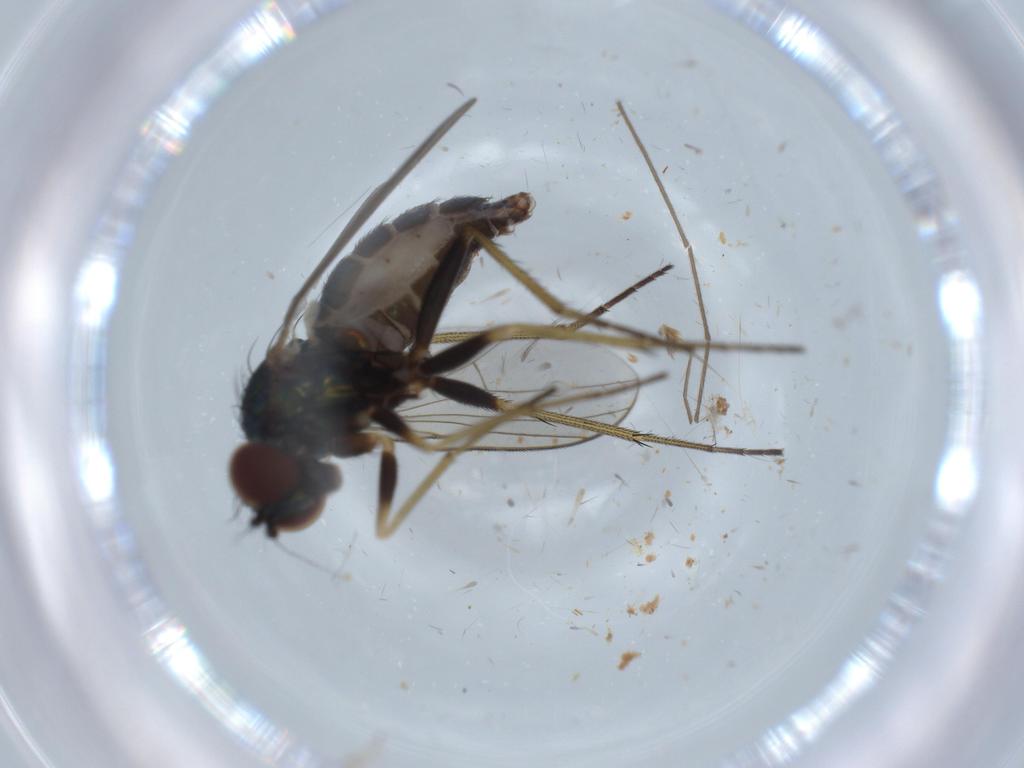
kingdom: Animalia
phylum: Arthropoda
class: Insecta
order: Diptera
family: Dolichopodidae
